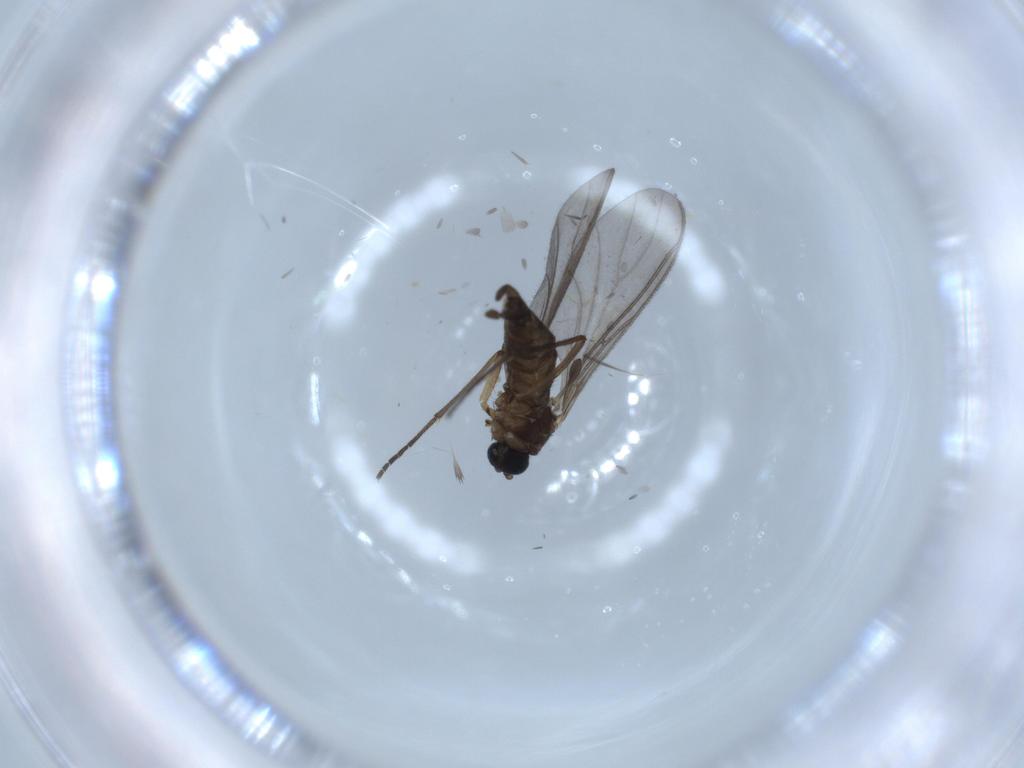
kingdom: Animalia
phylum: Arthropoda
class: Insecta
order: Diptera
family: Sciaridae
